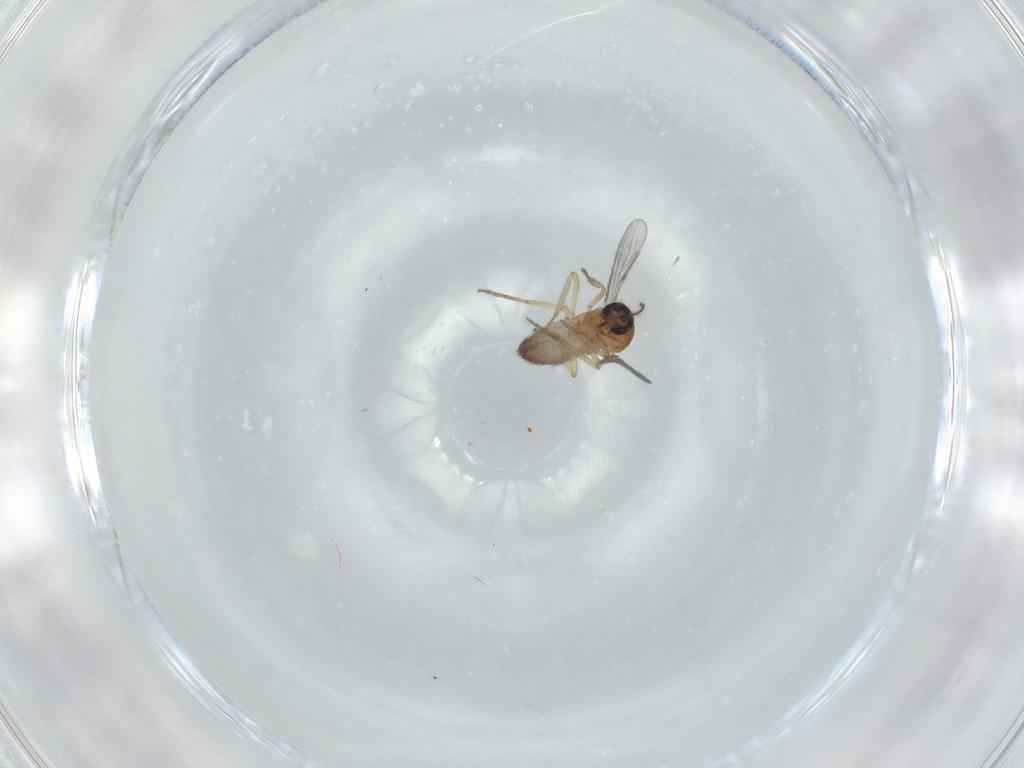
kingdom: Animalia
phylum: Arthropoda
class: Insecta
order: Diptera
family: Ceratopogonidae
